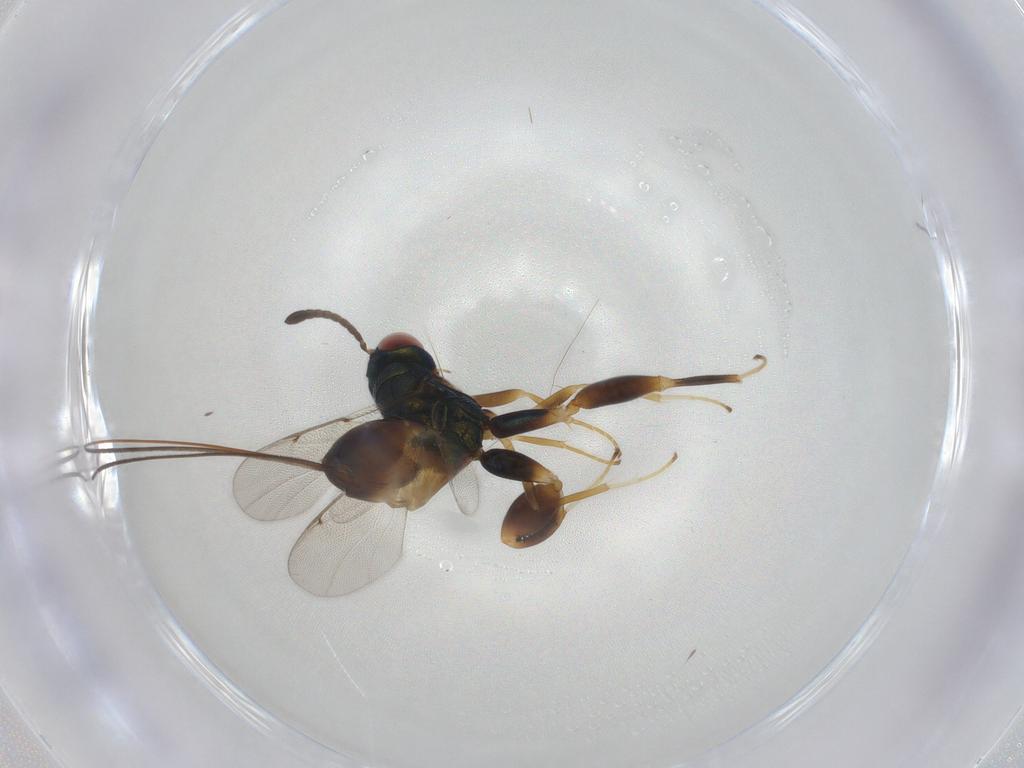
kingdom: Animalia
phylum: Arthropoda
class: Insecta
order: Hymenoptera
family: Torymidae
